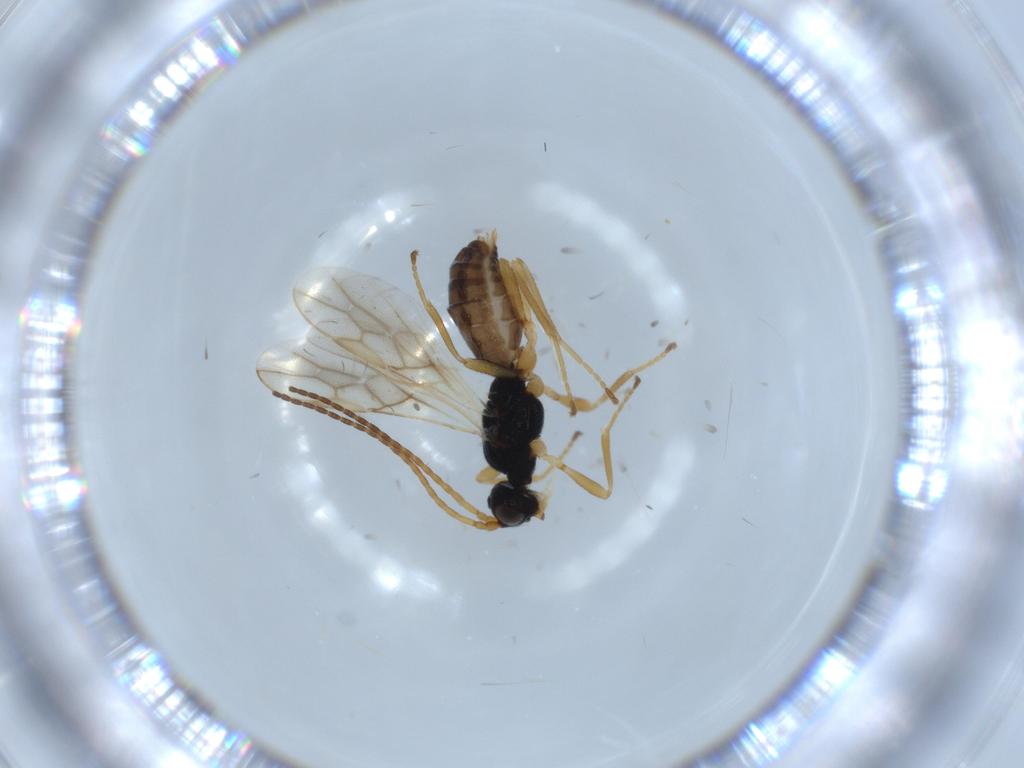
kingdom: Animalia
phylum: Arthropoda
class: Insecta
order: Hymenoptera
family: Braconidae
